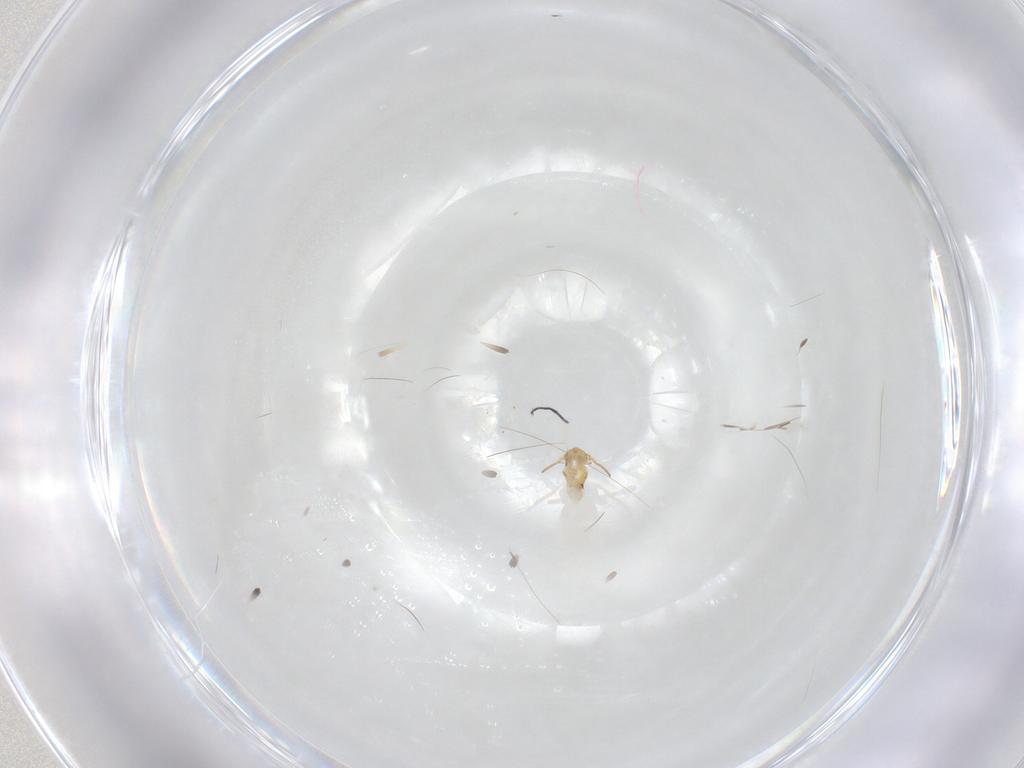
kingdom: Animalia
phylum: Arthropoda
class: Collembola
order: Symphypleona
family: Bourletiellidae
